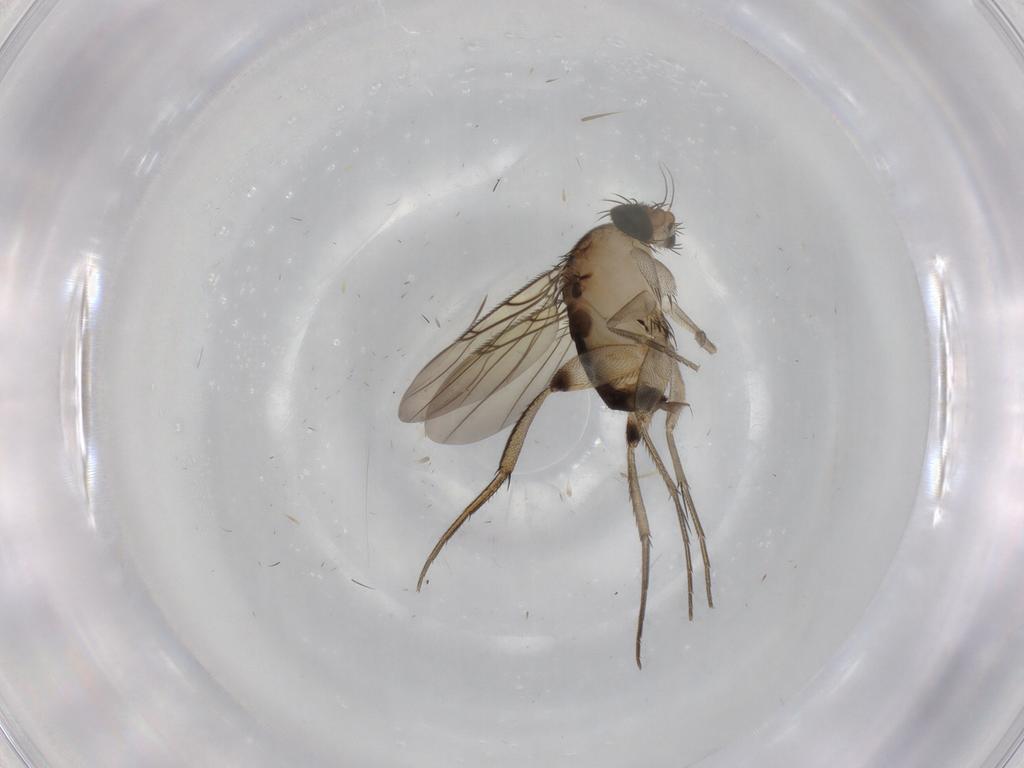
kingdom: Animalia
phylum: Arthropoda
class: Insecta
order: Diptera
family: Phoridae
